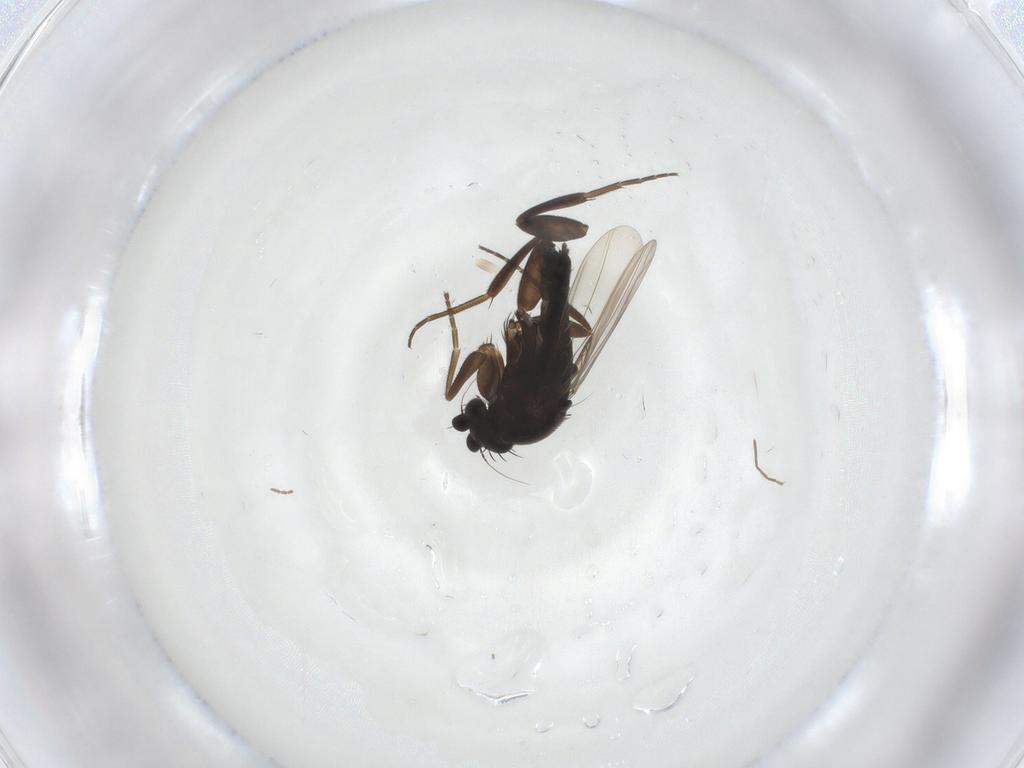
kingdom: Animalia
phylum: Arthropoda
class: Insecta
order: Diptera
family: Chironomidae
